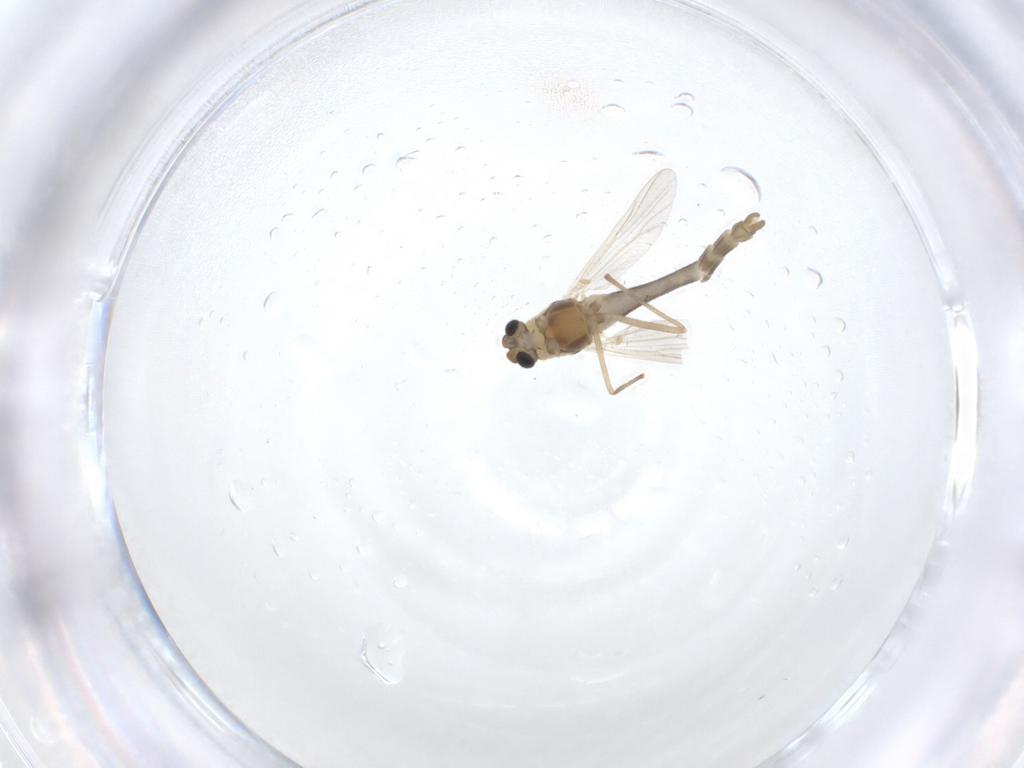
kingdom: Animalia
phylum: Arthropoda
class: Insecta
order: Diptera
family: Chironomidae
